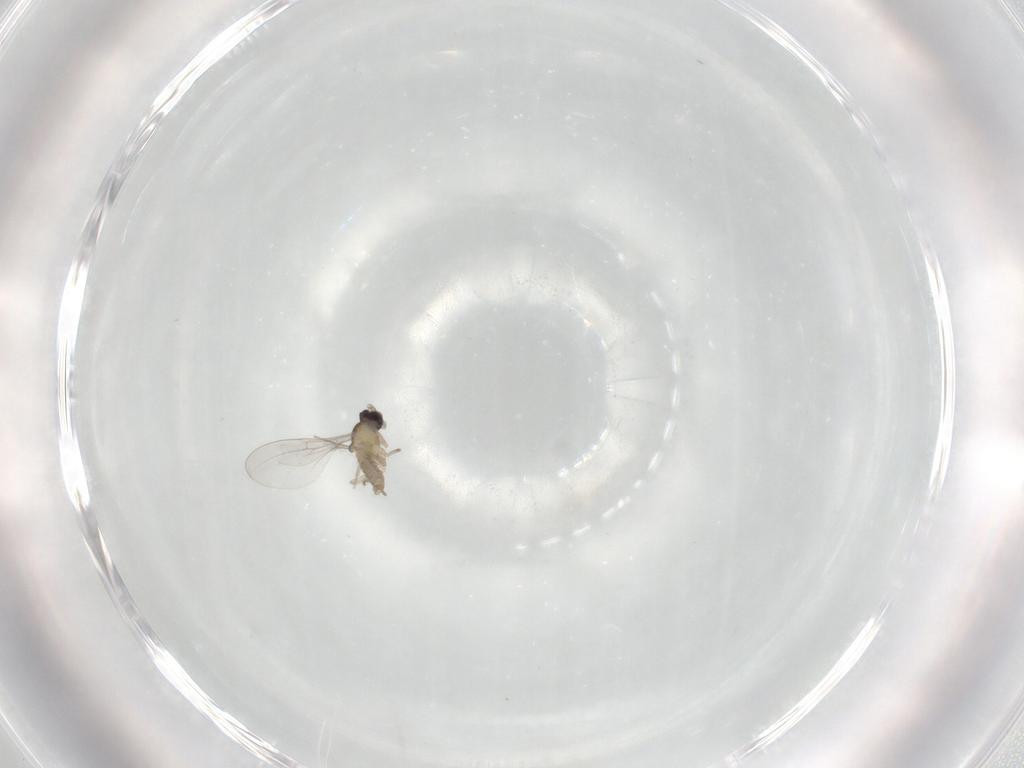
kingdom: Animalia
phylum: Arthropoda
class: Insecta
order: Diptera
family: Cecidomyiidae
